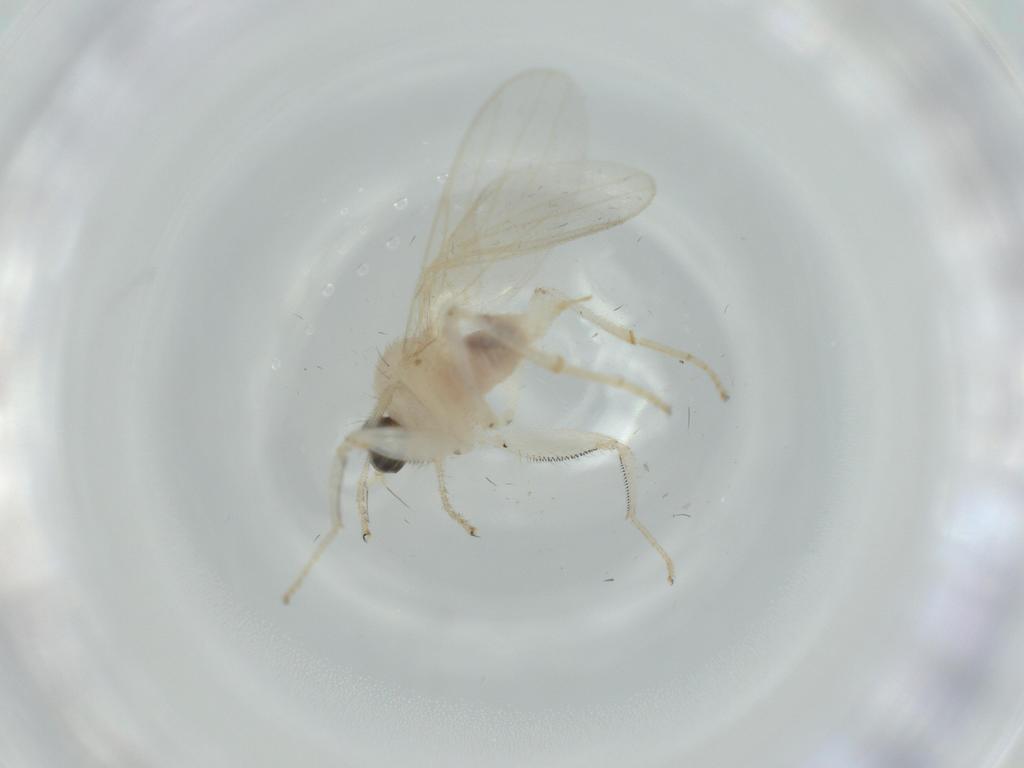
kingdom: Animalia
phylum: Arthropoda
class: Insecta
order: Diptera
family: Hybotidae
